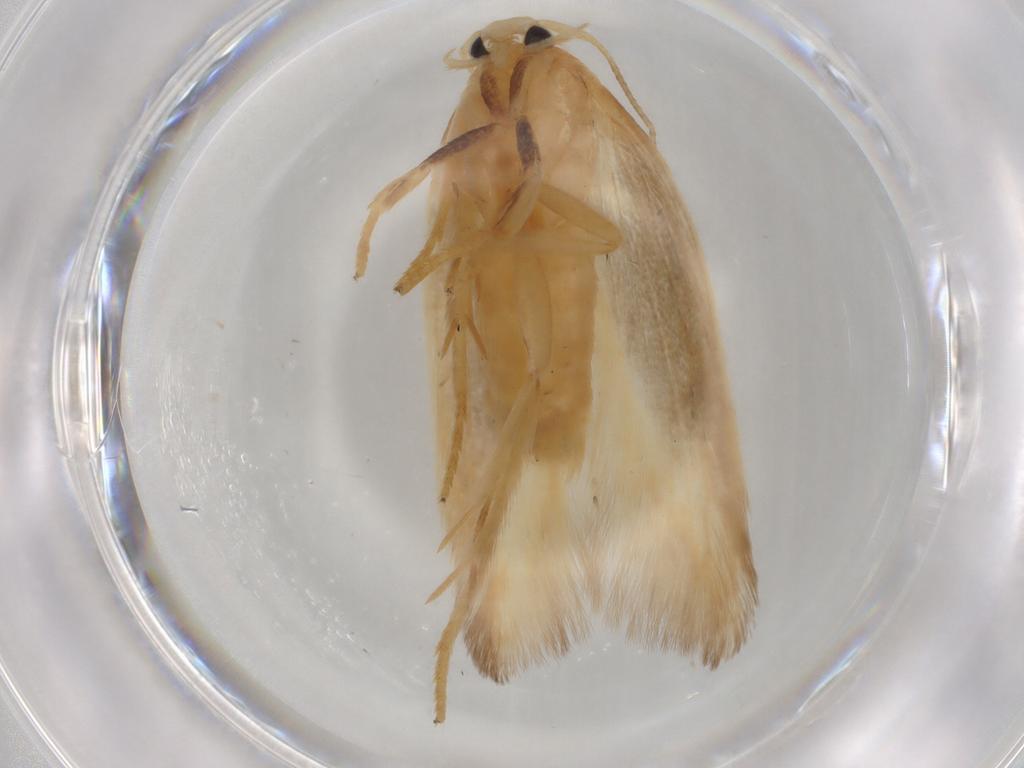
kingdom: Animalia
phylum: Arthropoda
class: Insecta
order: Lepidoptera
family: Geometridae
